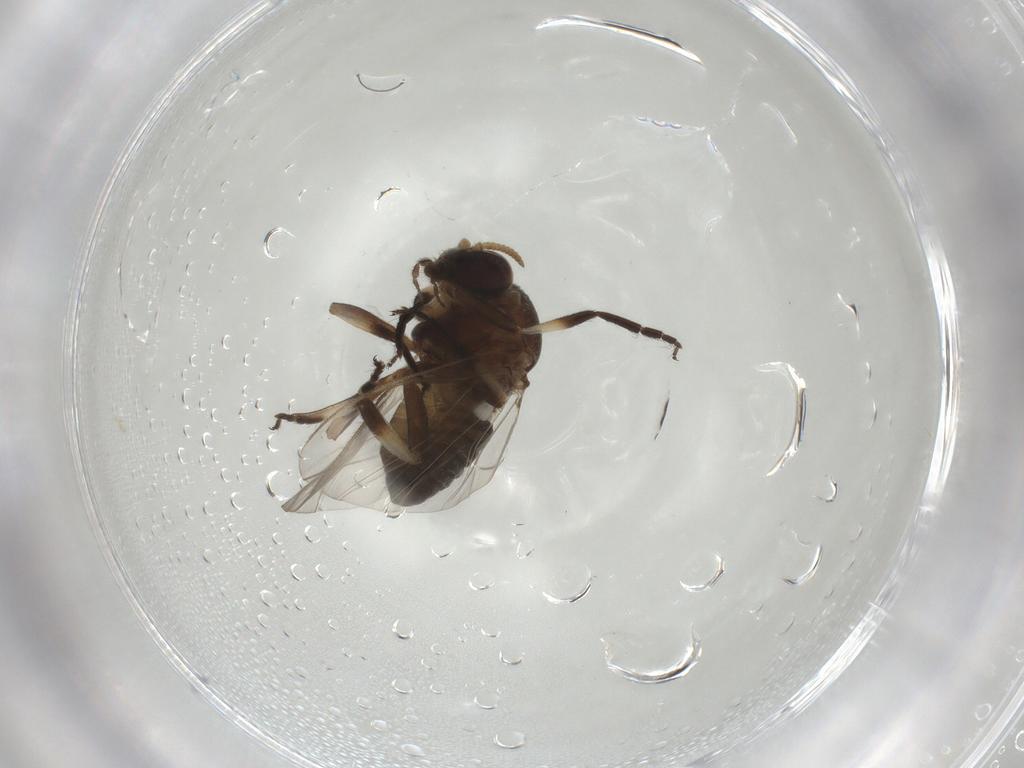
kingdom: Animalia
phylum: Arthropoda
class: Insecta
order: Diptera
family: Simuliidae
